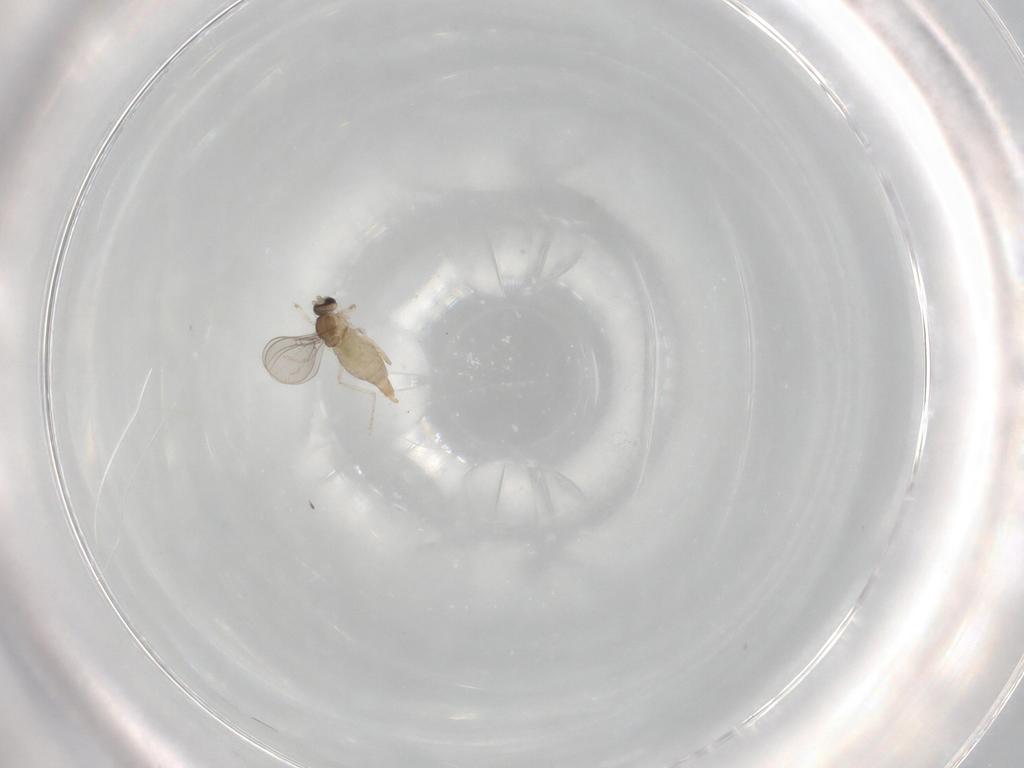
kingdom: Animalia
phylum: Arthropoda
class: Insecta
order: Diptera
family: Cecidomyiidae
